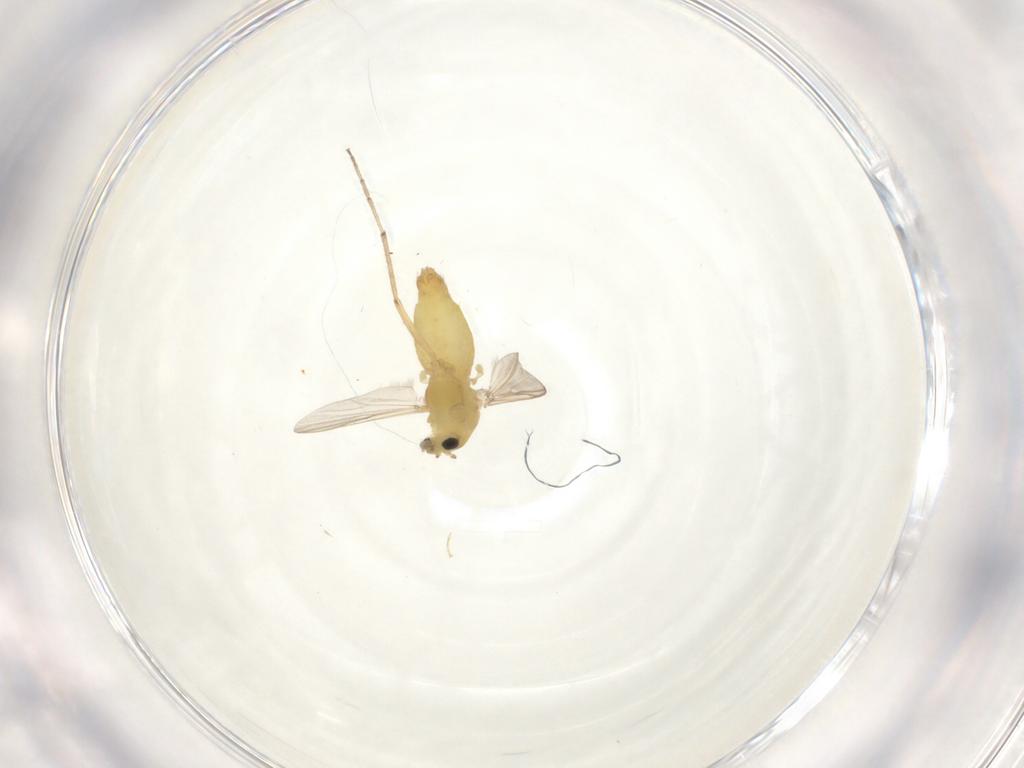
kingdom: Animalia
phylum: Arthropoda
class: Insecta
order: Diptera
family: Chironomidae
